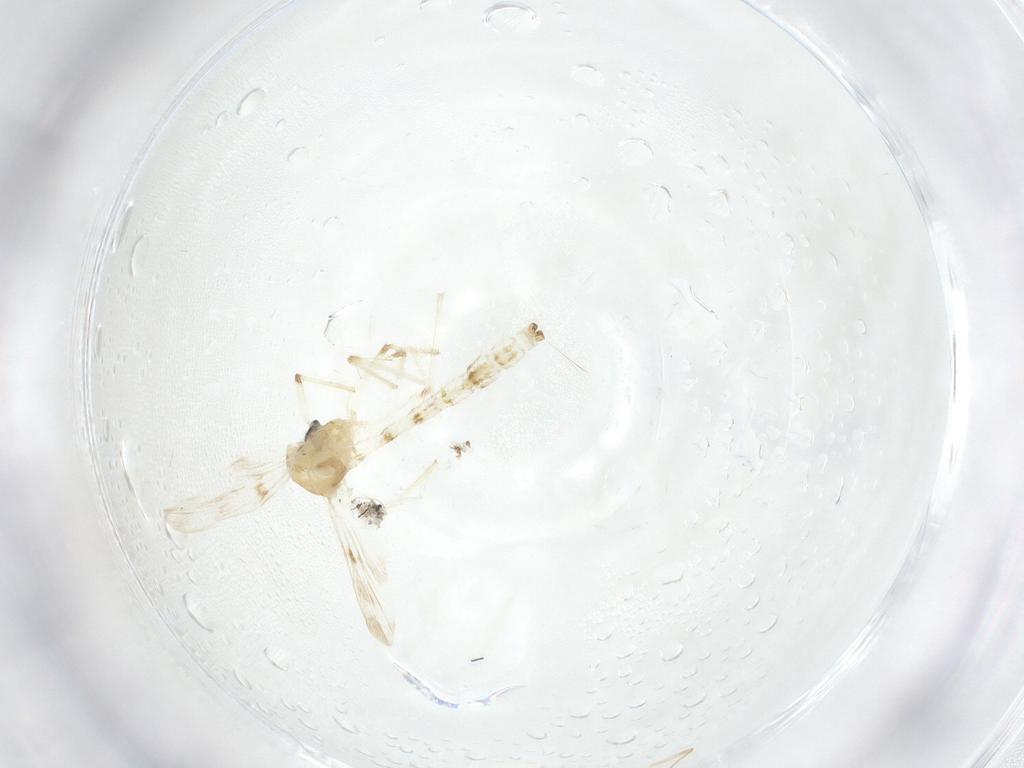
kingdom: Animalia
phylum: Arthropoda
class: Insecta
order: Diptera
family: Chironomidae
